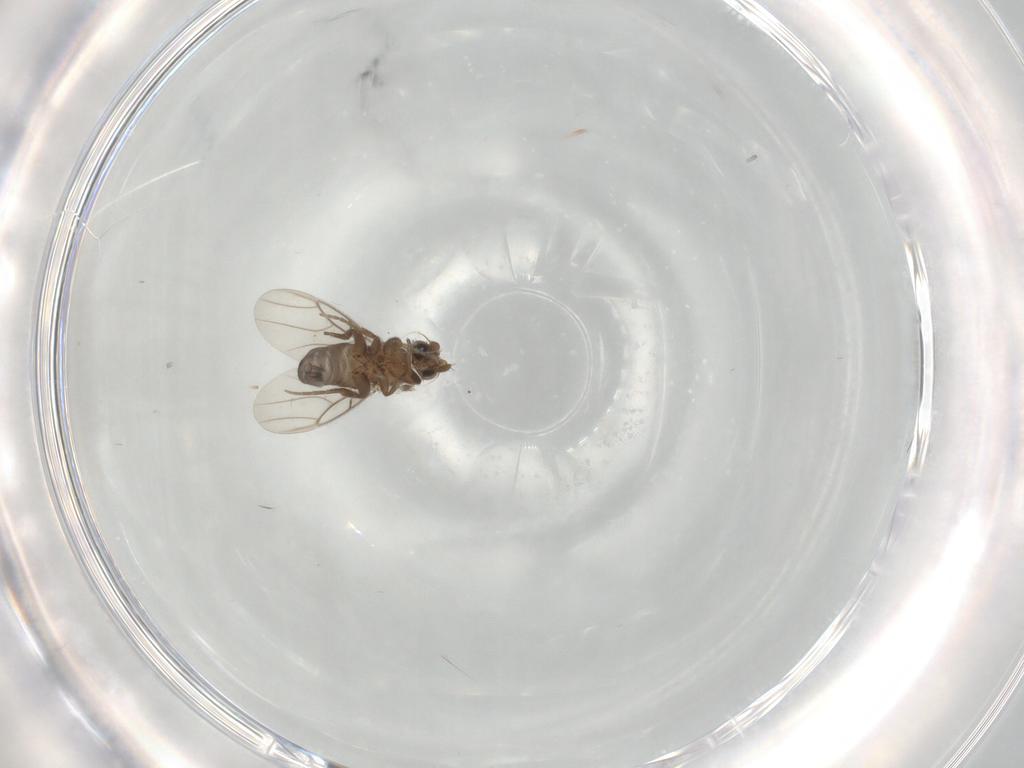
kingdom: Animalia
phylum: Arthropoda
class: Insecta
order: Diptera
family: Phoridae
